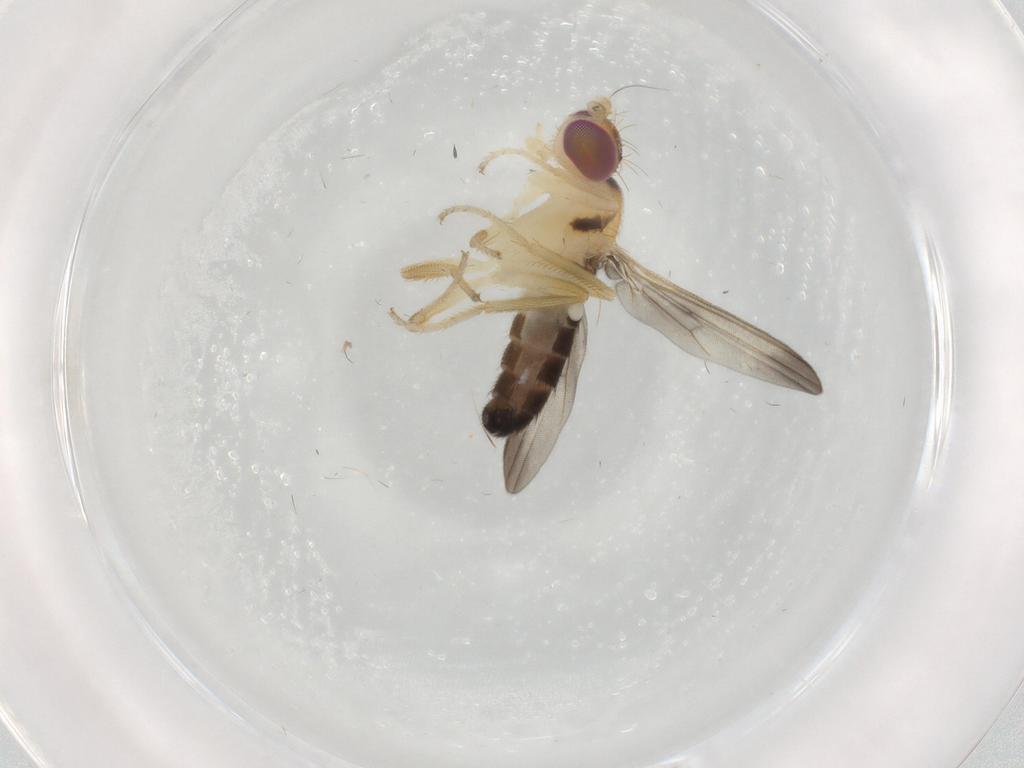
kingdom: Animalia
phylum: Arthropoda
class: Insecta
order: Diptera
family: Clusiidae
